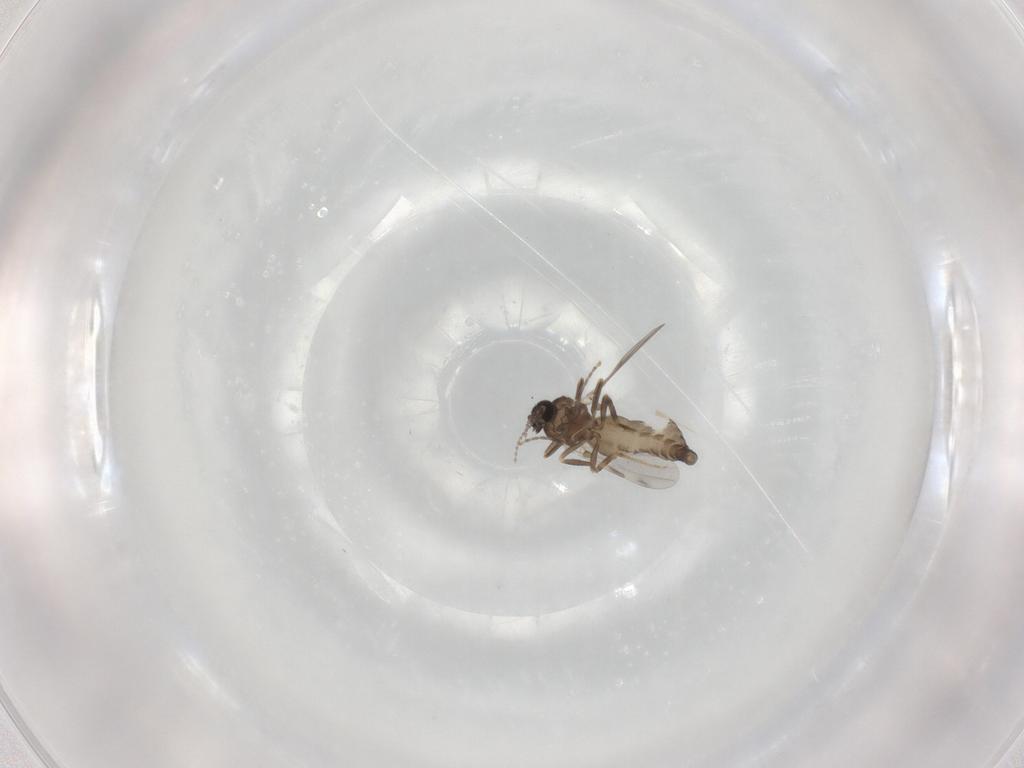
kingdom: Animalia
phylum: Arthropoda
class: Insecta
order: Diptera
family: Ceratopogonidae
